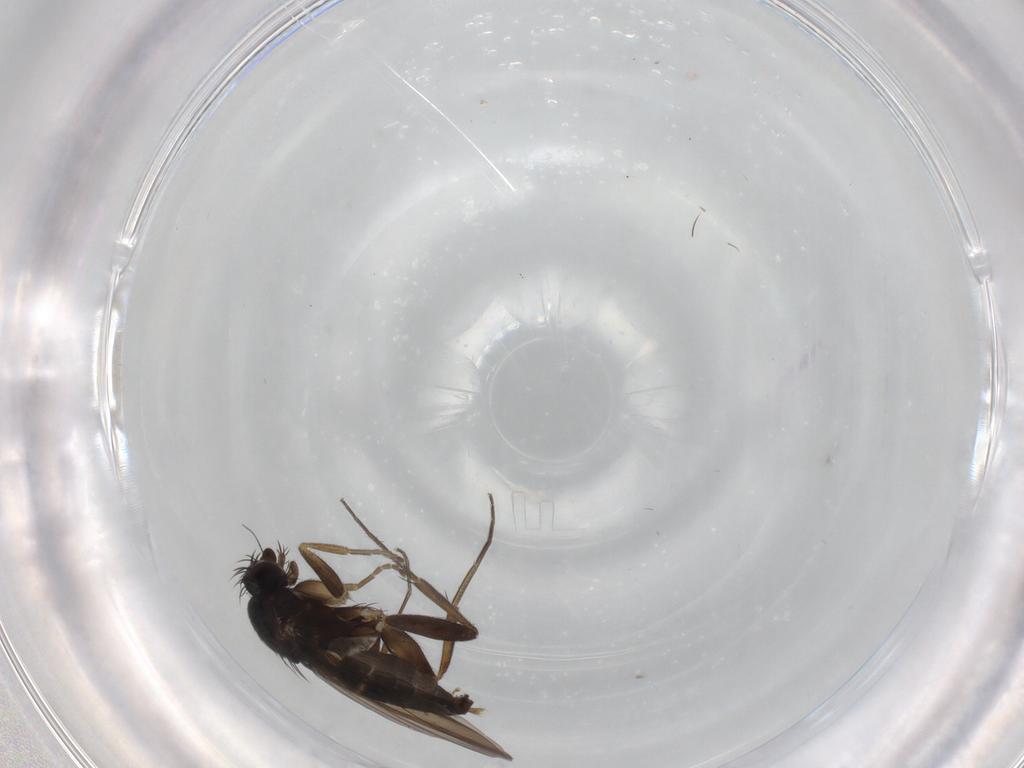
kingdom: Animalia
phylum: Arthropoda
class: Insecta
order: Diptera
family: Phoridae
